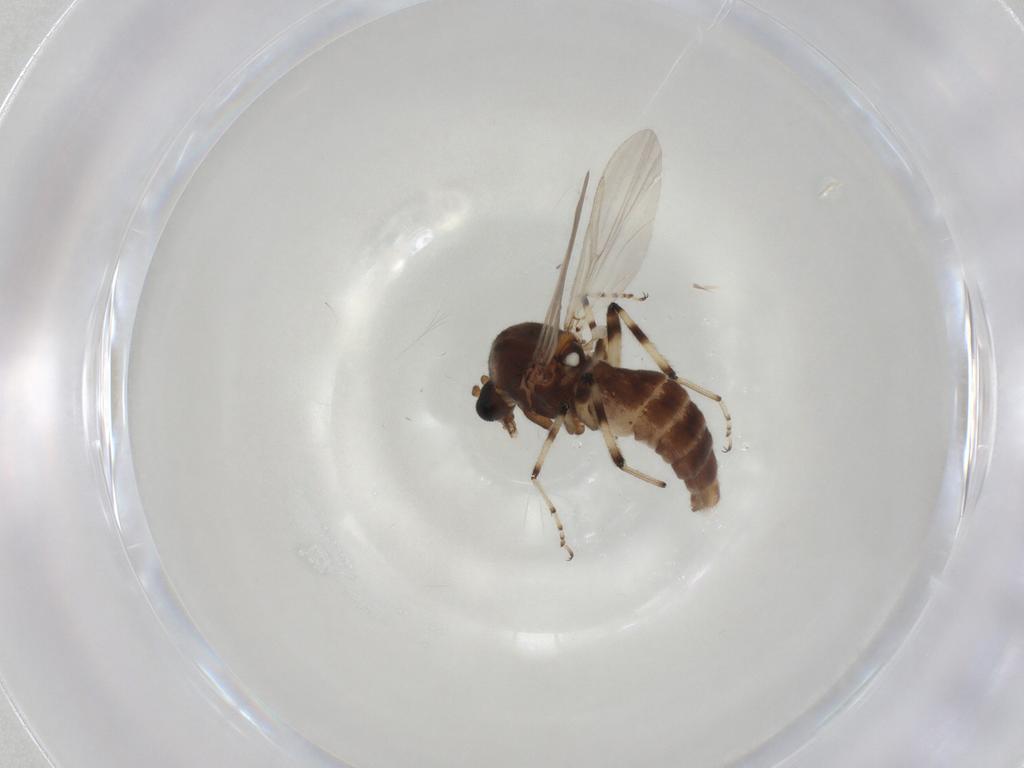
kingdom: Animalia
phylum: Arthropoda
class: Insecta
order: Diptera
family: Ceratopogonidae
